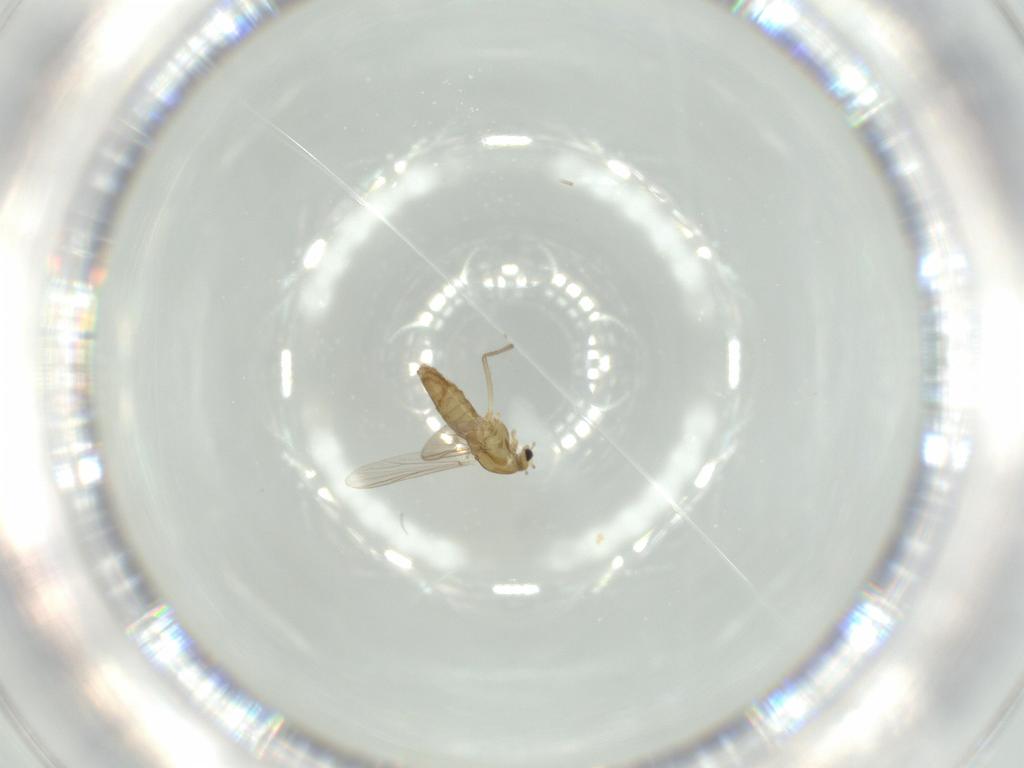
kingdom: Animalia
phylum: Arthropoda
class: Insecta
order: Diptera
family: Chironomidae
